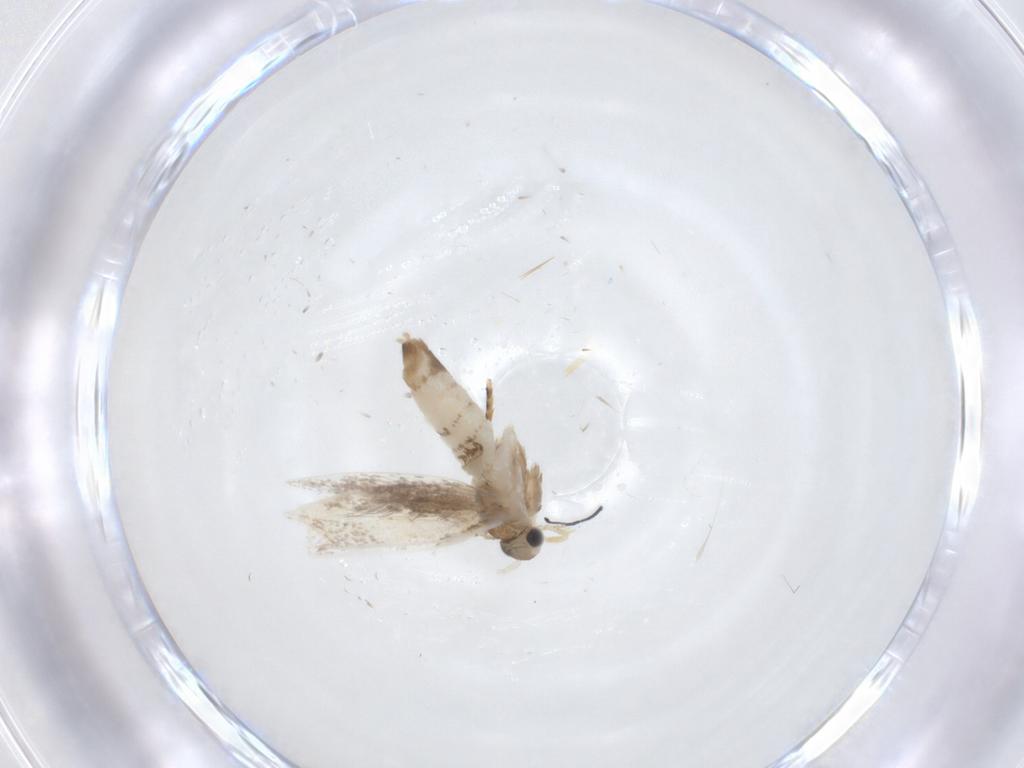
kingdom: Animalia
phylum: Arthropoda
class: Insecta
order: Lepidoptera
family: Dryadaulidae
